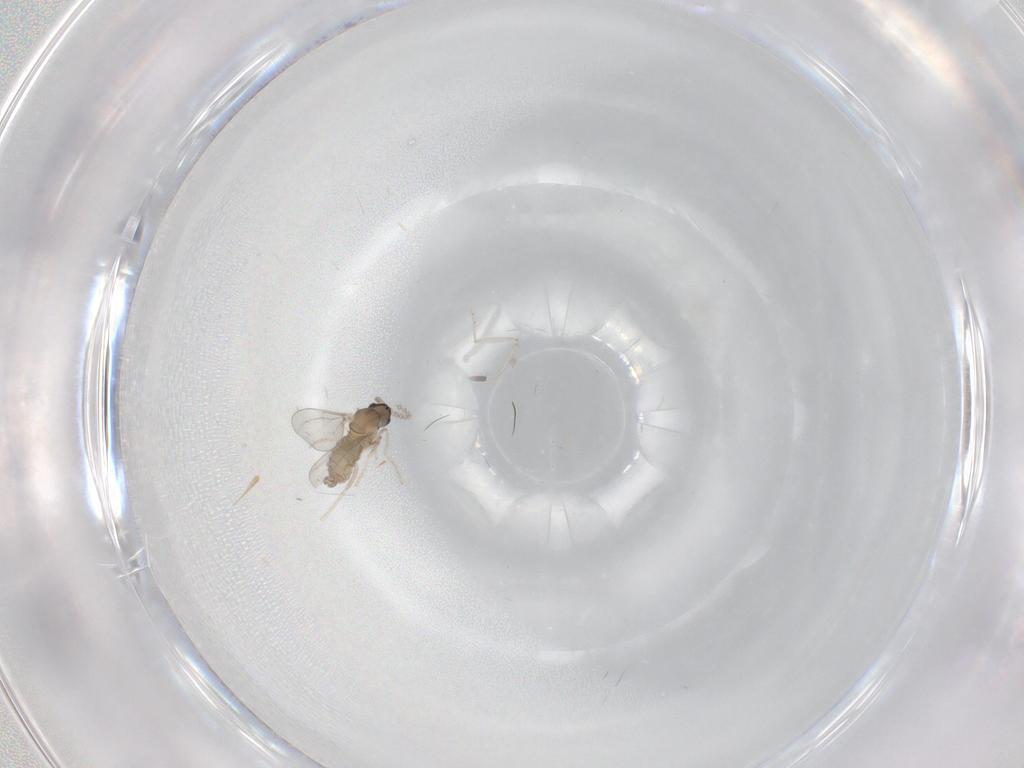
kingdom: Animalia
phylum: Arthropoda
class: Insecta
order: Diptera
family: Cecidomyiidae
